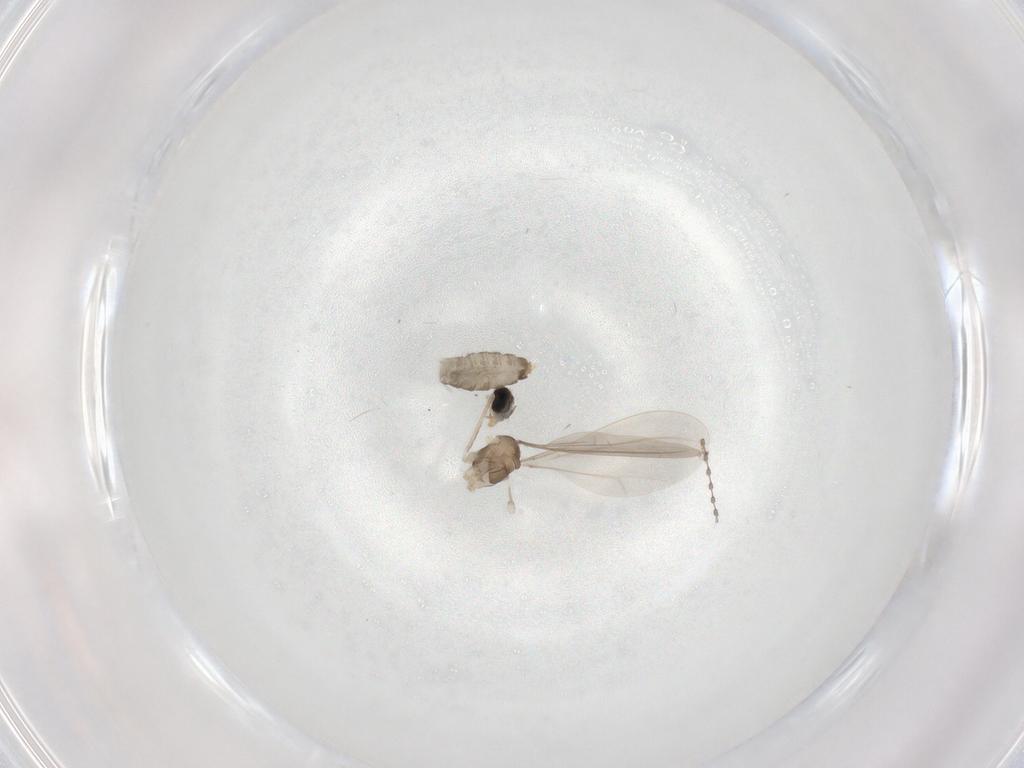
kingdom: Animalia
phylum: Arthropoda
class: Insecta
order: Diptera
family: Cecidomyiidae
